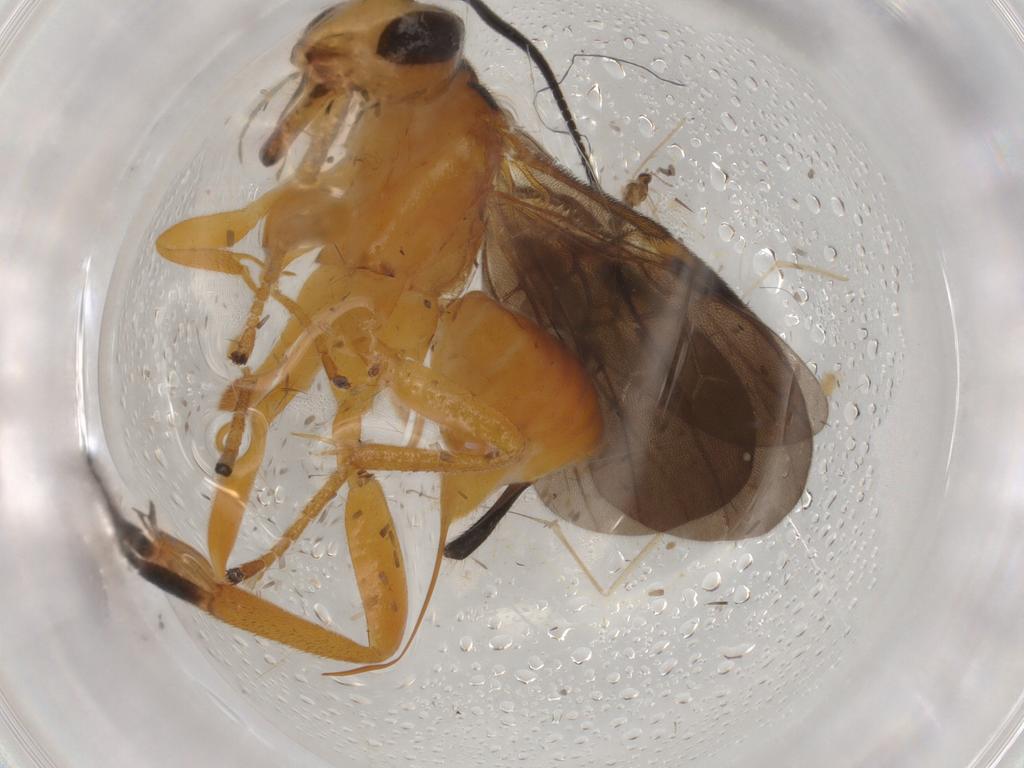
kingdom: Animalia
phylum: Arthropoda
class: Insecta
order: Hymenoptera
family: Braconidae
